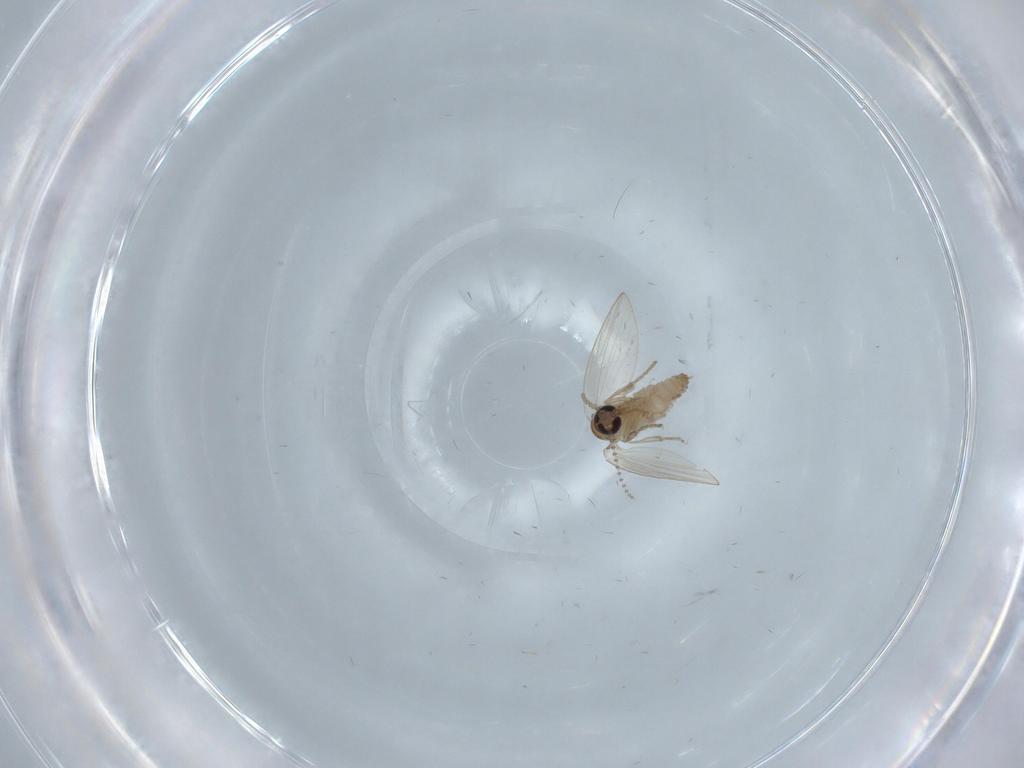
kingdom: Animalia
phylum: Arthropoda
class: Insecta
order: Diptera
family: Psychodidae
